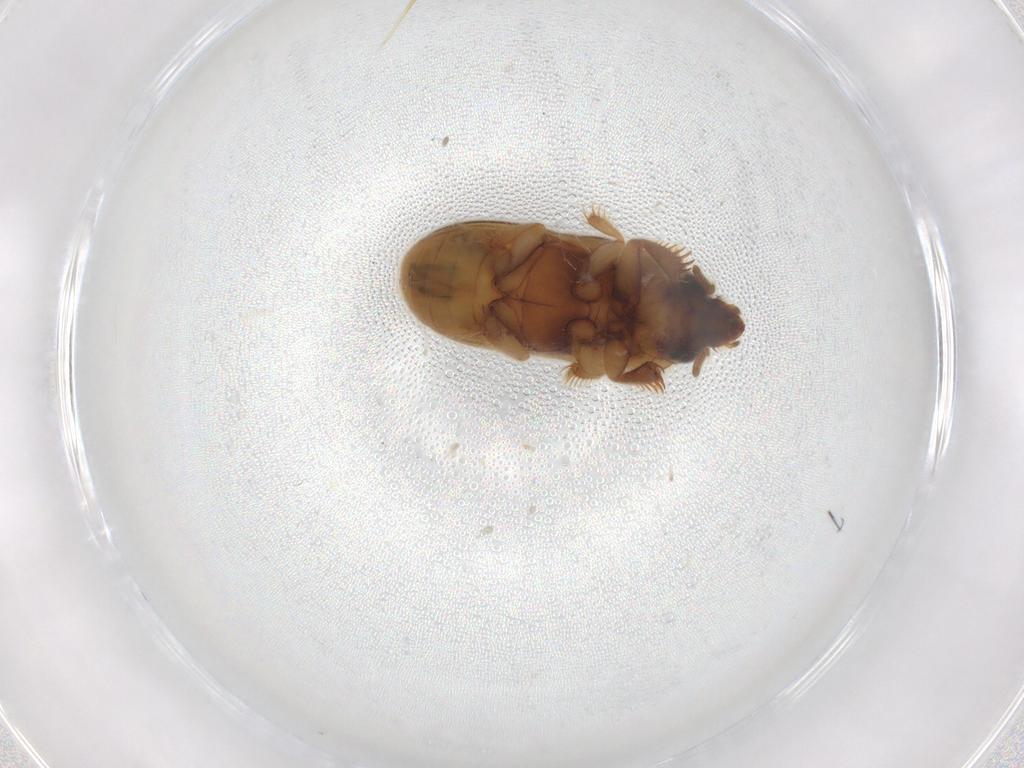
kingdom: Animalia
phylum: Arthropoda
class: Insecta
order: Coleoptera
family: Heteroceridae
